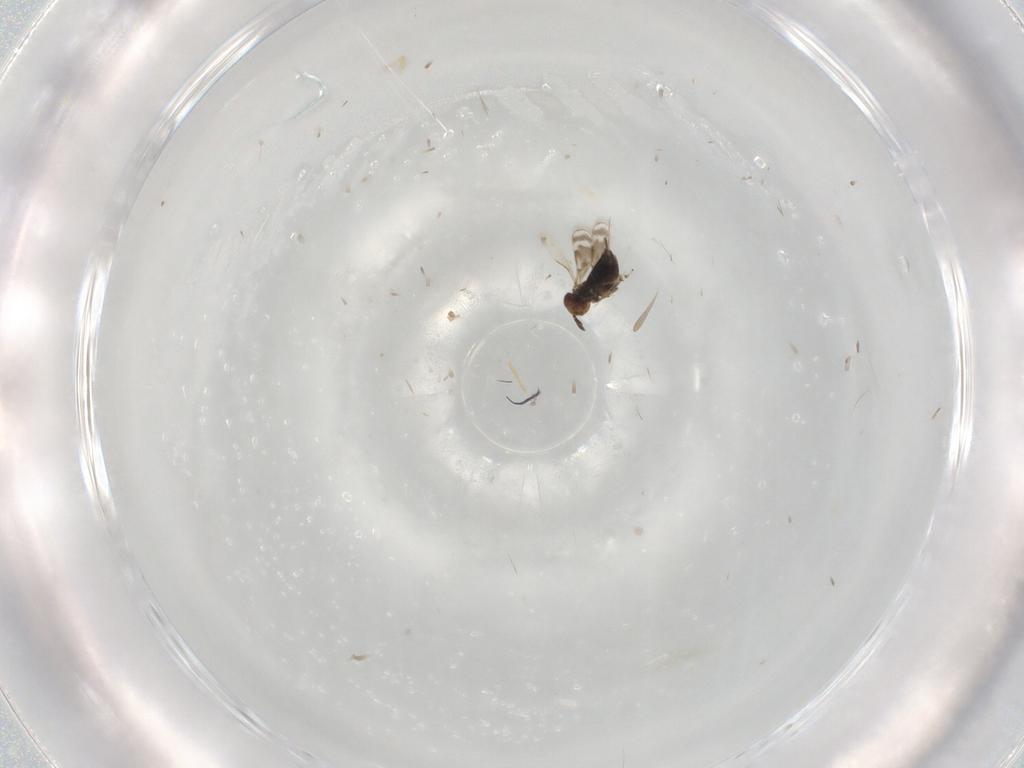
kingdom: Animalia
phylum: Arthropoda
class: Insecta
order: Hymenoptera
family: Azotidae
